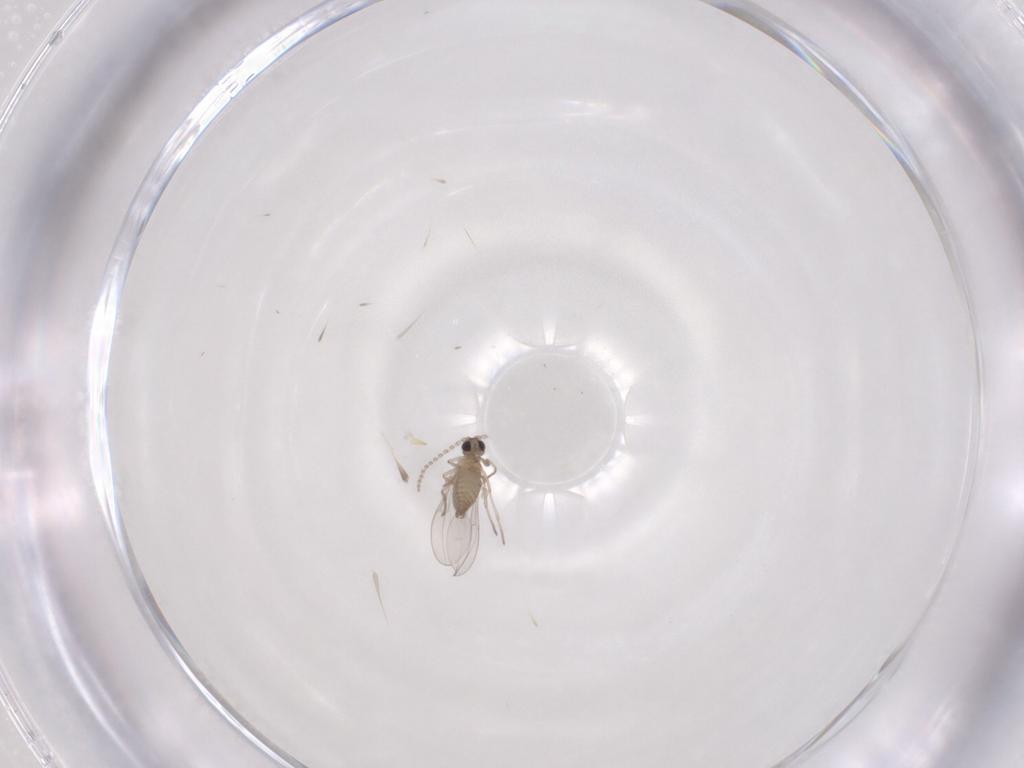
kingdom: Animalia
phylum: Arthropoda
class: Insecta
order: Diptera
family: Cecidomyiidae
